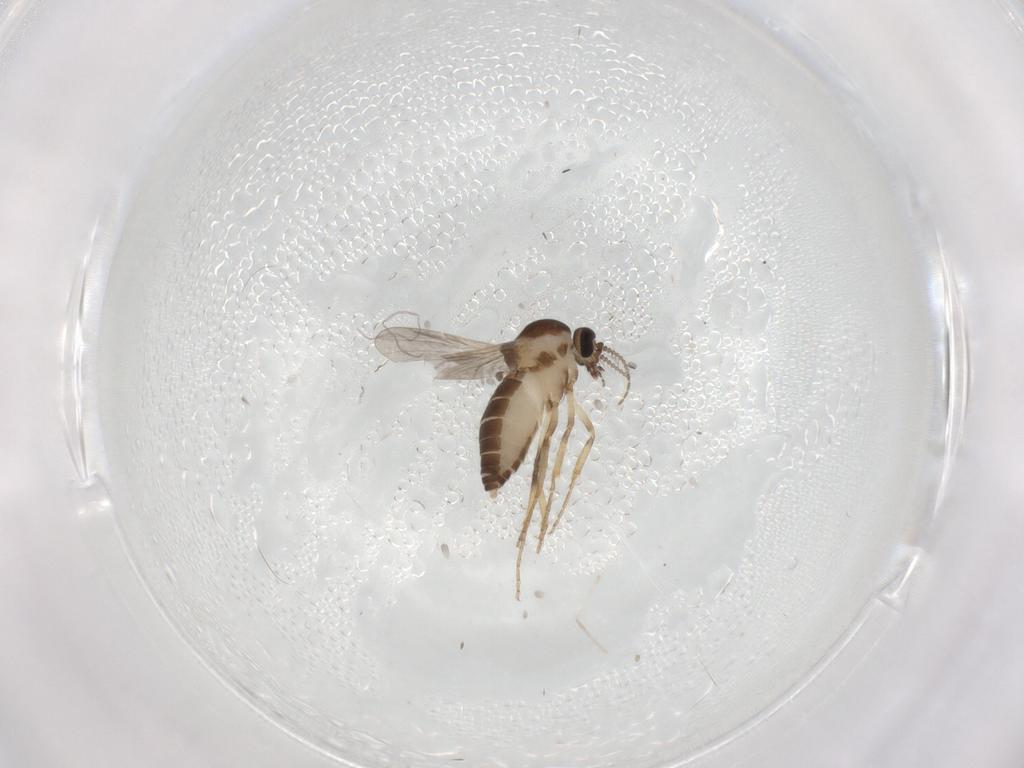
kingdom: Animalia
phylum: Arthropoda
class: Insecta
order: Diptera
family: Ceratopogonidae
